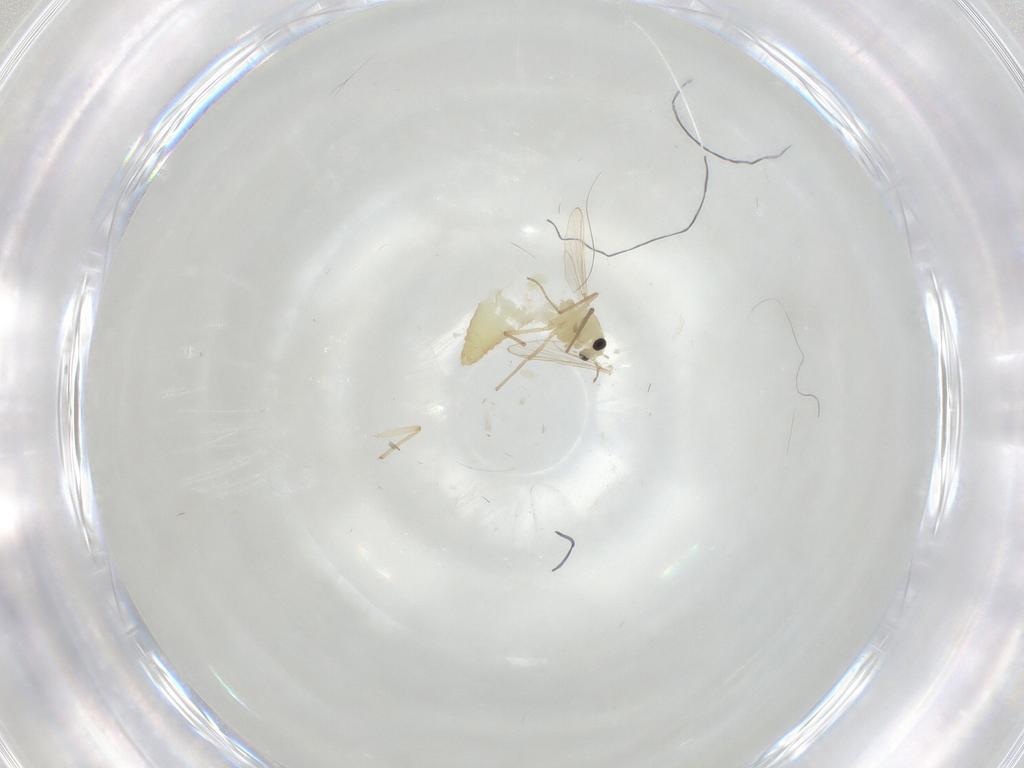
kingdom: Animalia
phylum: Arthropoda
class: Insecta
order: Diptera
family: Chironomidae
